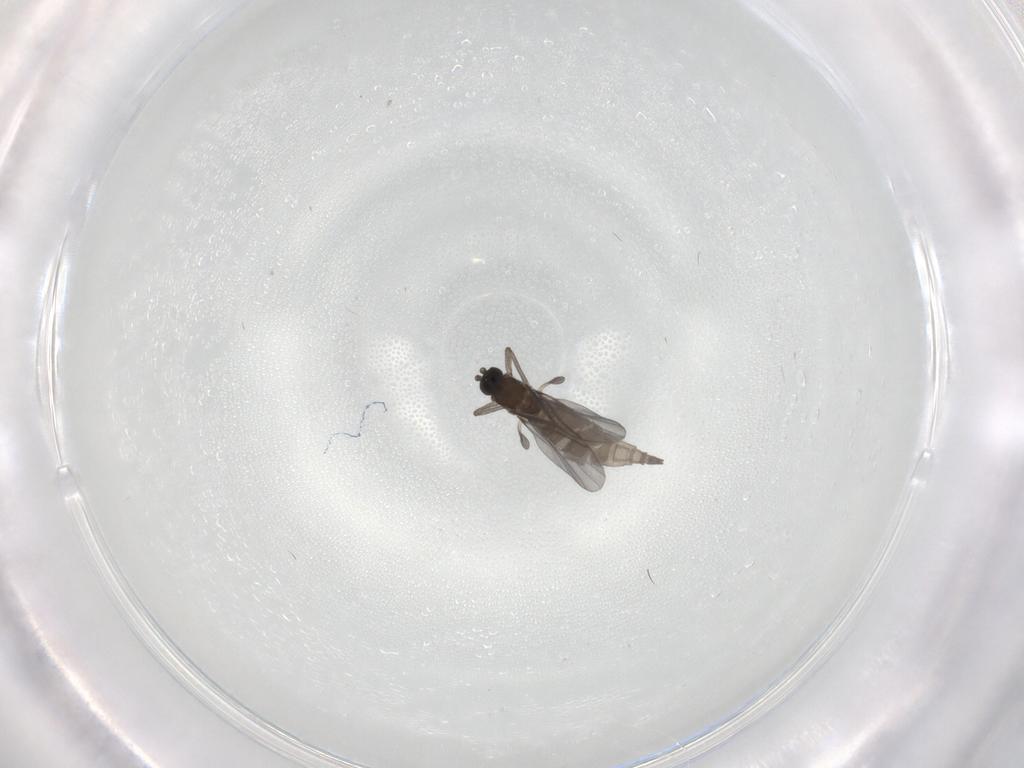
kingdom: Animalia
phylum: Arthropoda
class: Insecta
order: Diptera
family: Sciaridae
